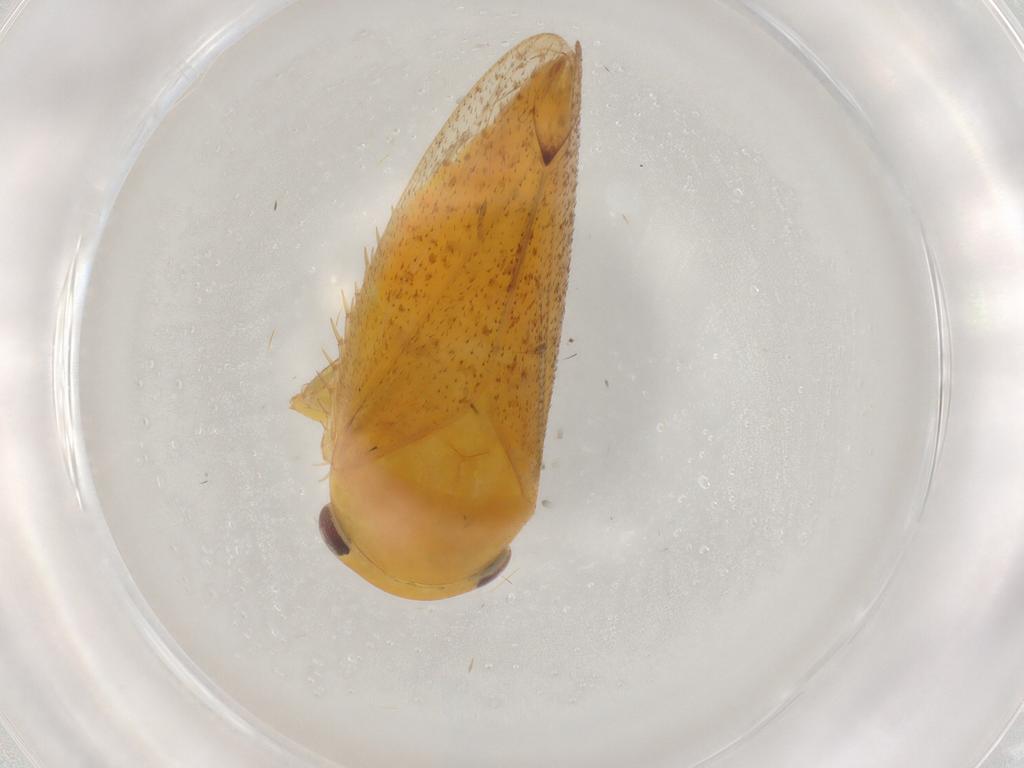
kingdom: Animalia
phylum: Arthropoda
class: Insecta
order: Hemiptera
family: Cicadellidae
